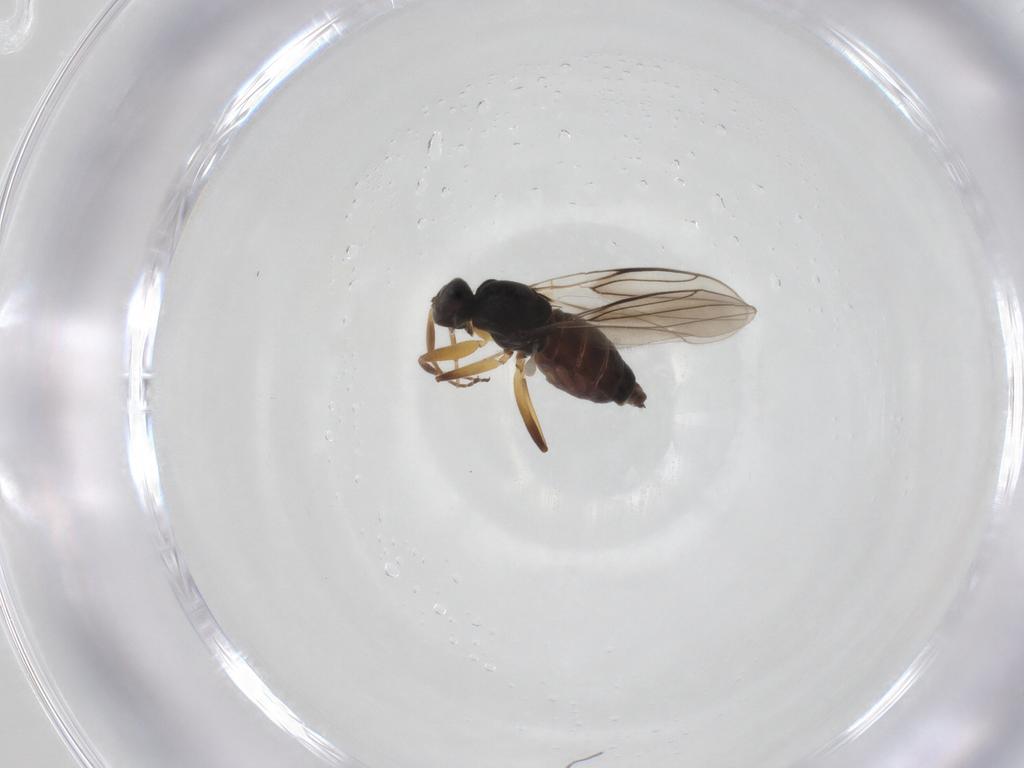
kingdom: Animalia
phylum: Arthropoda
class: Insecta
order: Diptera
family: Hybotidae
